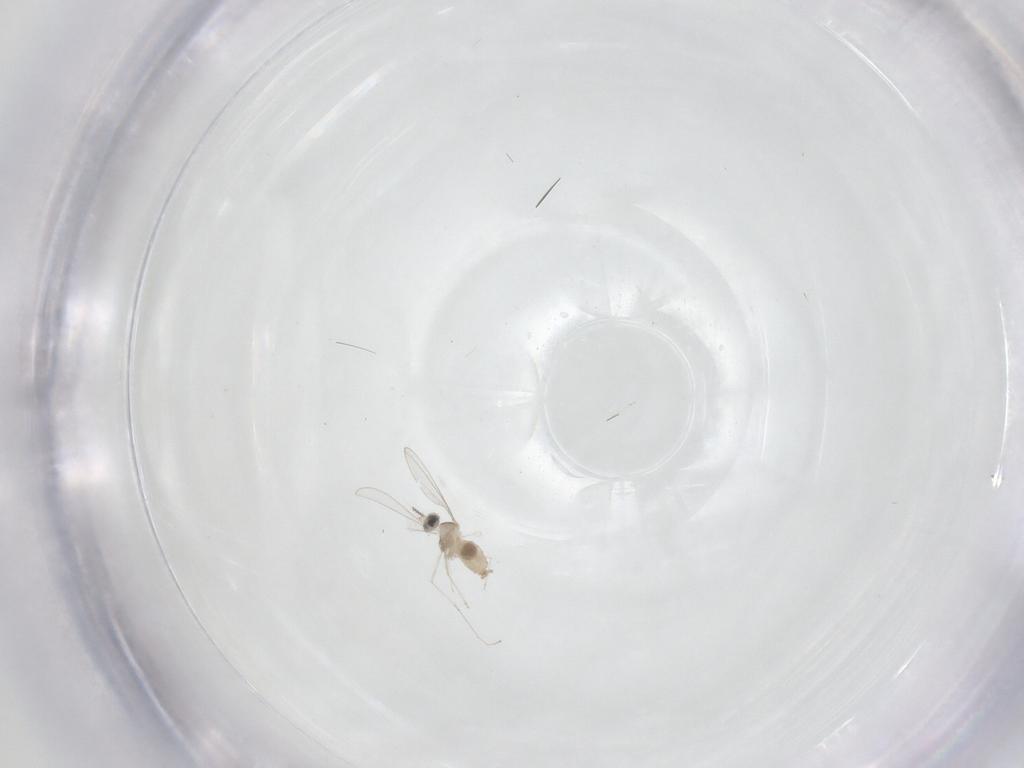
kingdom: Animalia
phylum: Arthropoda
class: Insecta
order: Diptera
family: Cecidomyiidae
